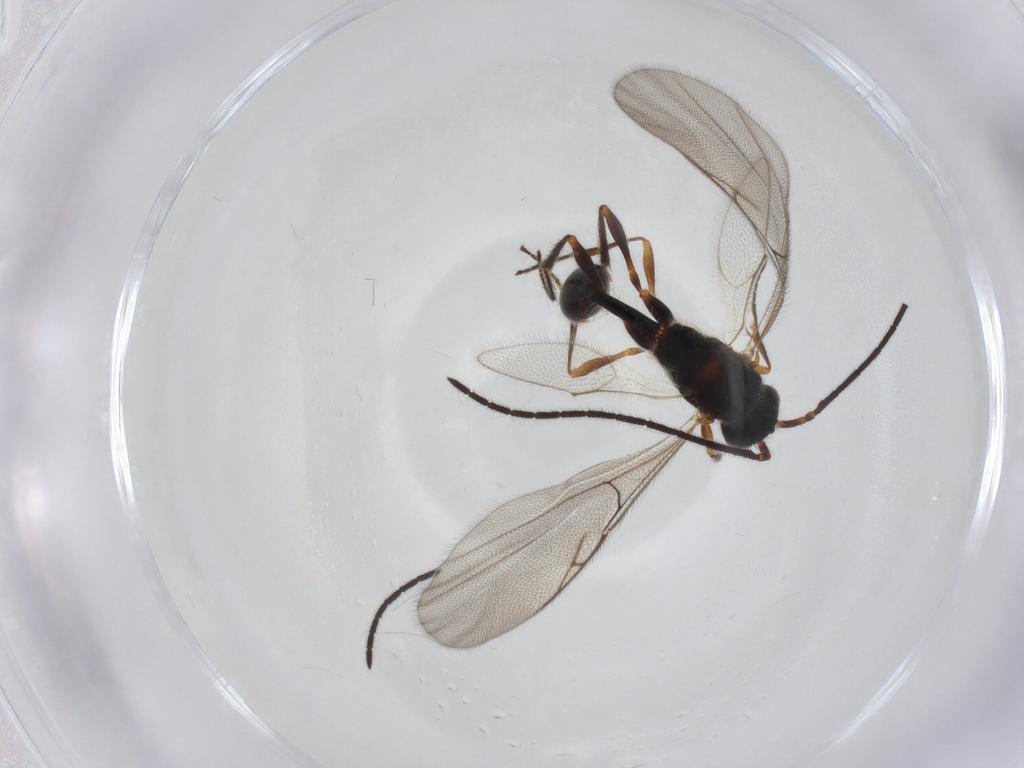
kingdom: Animalia
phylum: Arthropoda
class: Insecta
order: Hymenoptera
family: Diapriidae
